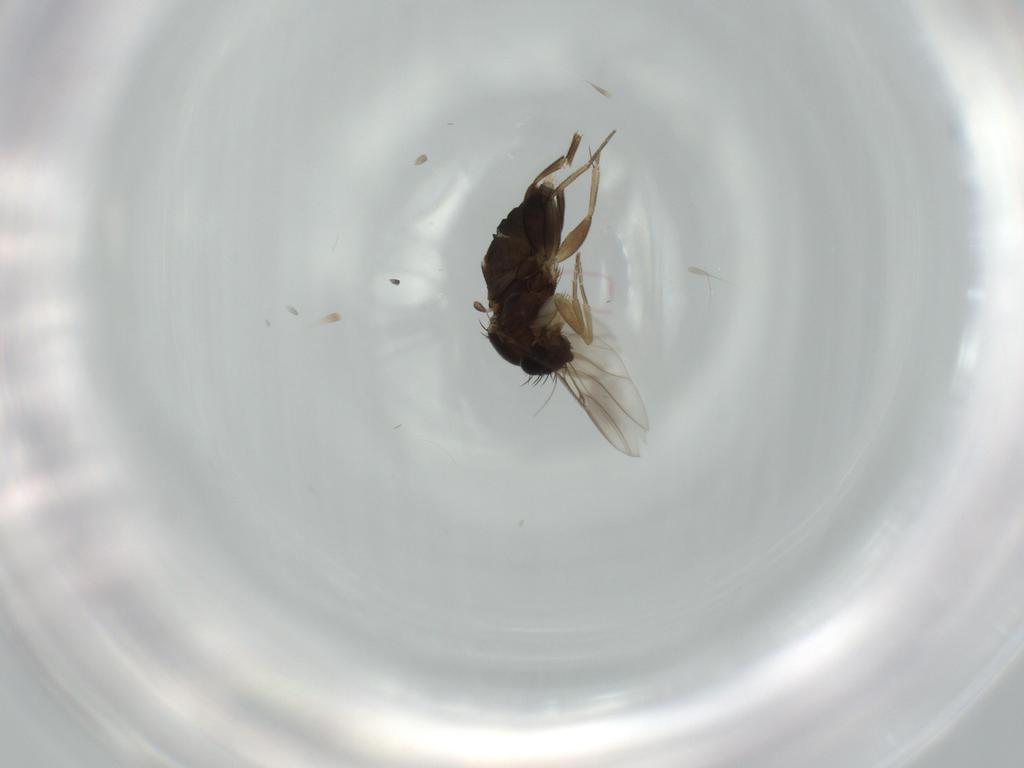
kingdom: Animalia
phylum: Arthropoda
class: Insecta
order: Diptera
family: Phoridae
